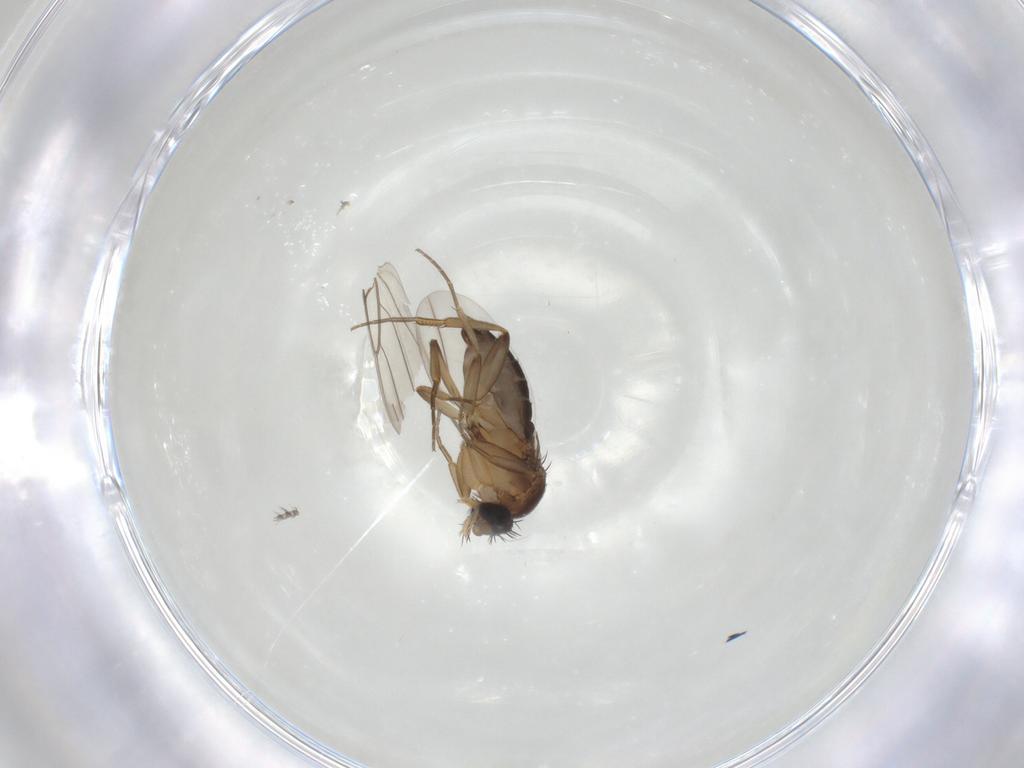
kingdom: Animalia
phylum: Arthropoda
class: Insecta
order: Diptera
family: Phoridae
